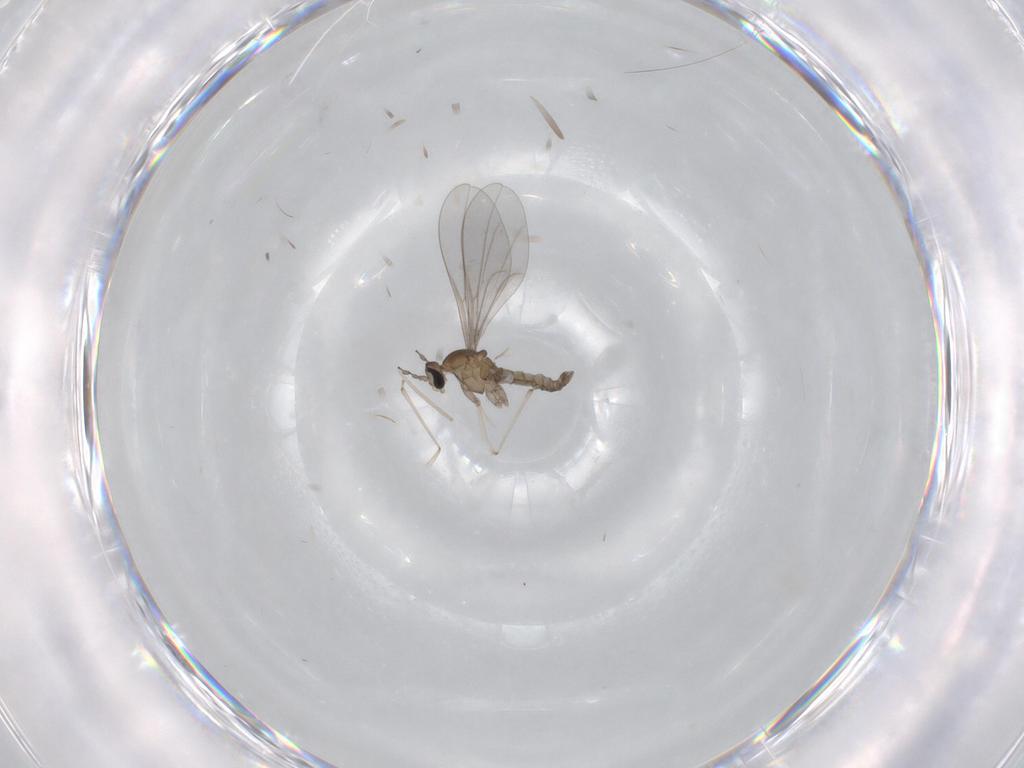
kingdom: Animalia
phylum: Arthropoda
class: Insecta
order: Diptera
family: Cecidomyiidae
